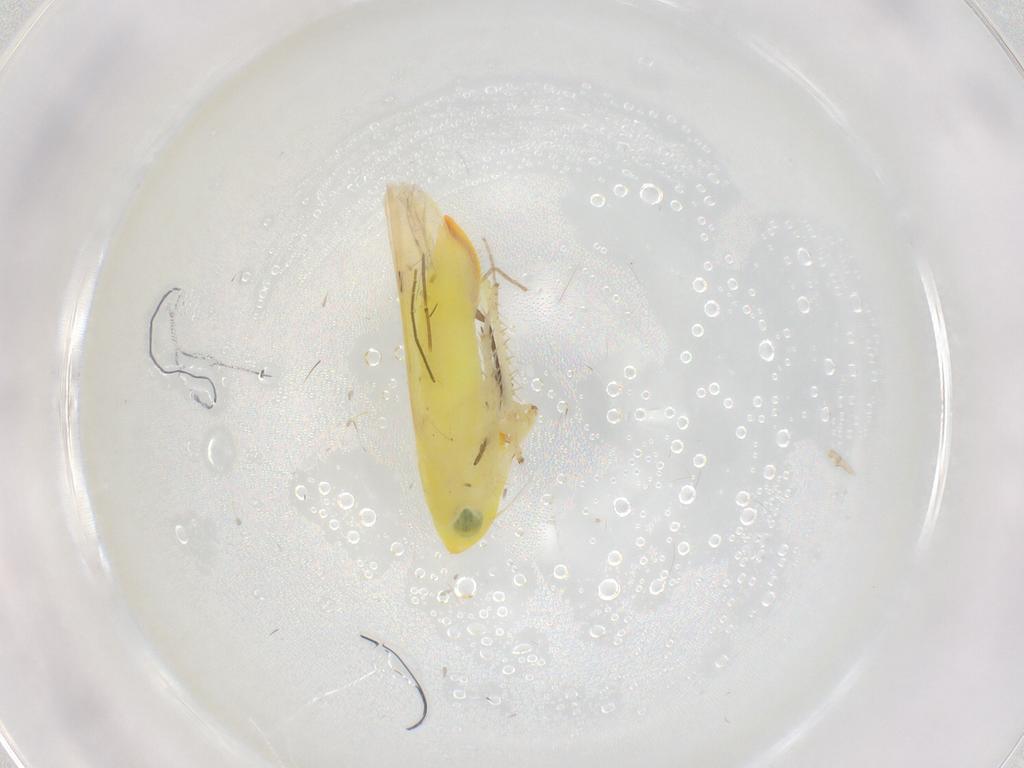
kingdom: Animalia
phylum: Arthropoda
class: Insecta
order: Hemiptera
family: Cicadellidae
